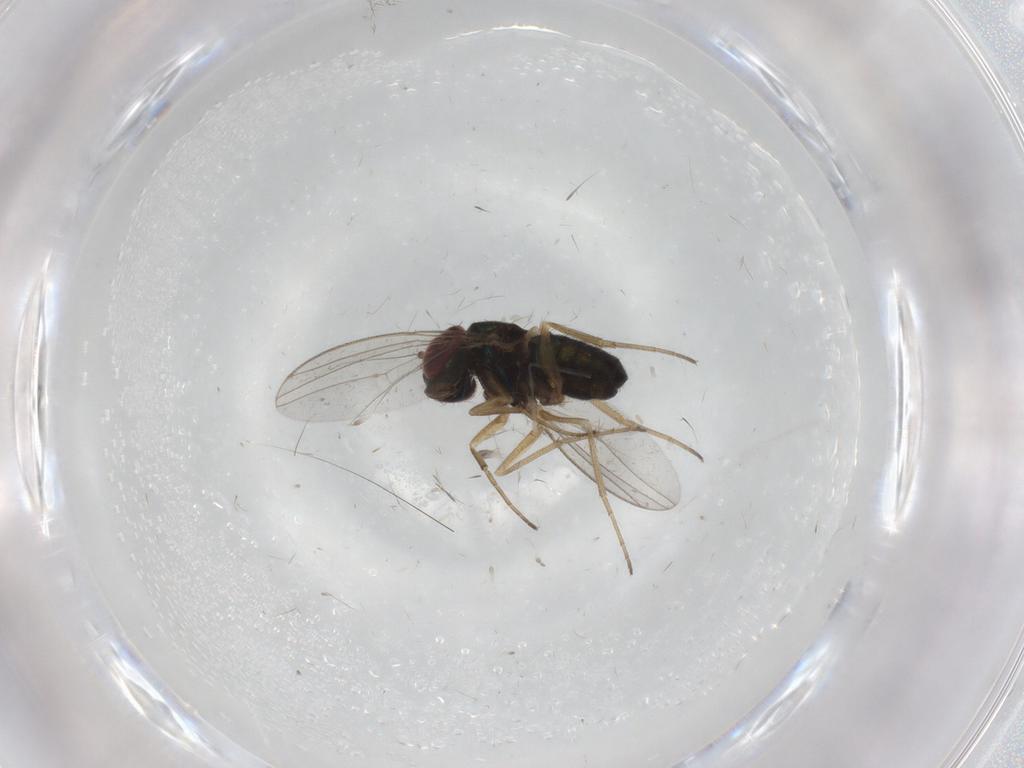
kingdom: Animalia
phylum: Arthropoda
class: Insecta
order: Diptera
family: Dolichopodidae
